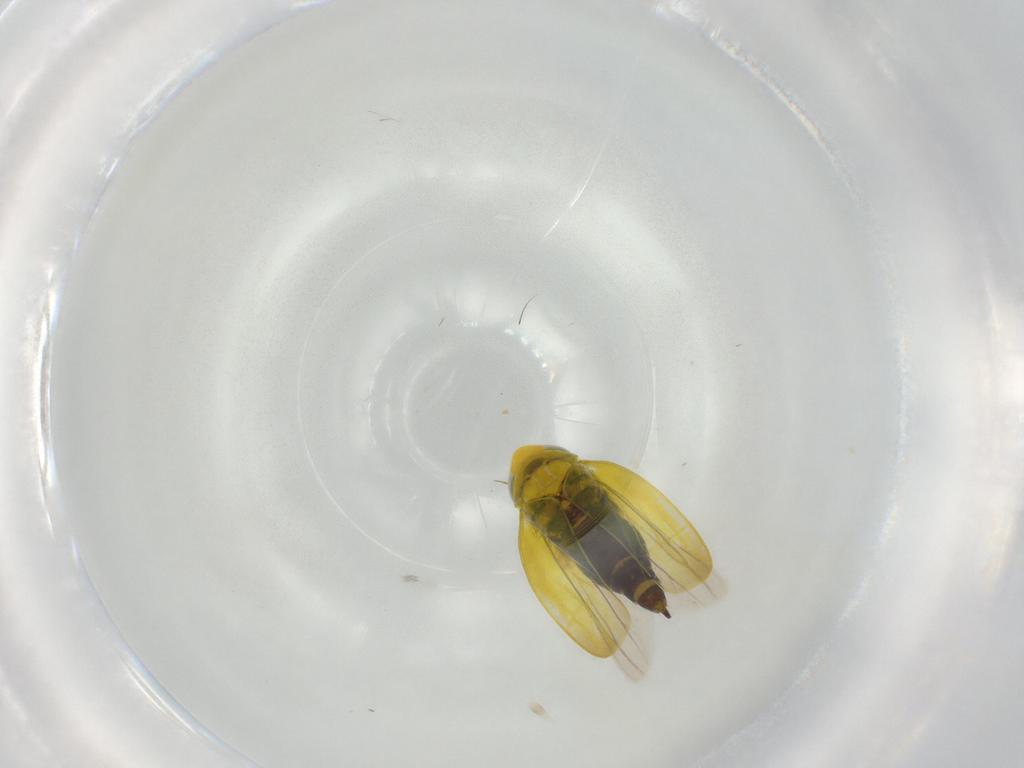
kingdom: Animalia
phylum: Arthropoda
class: Insecta
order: Hemiptera
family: Cicadellidae
